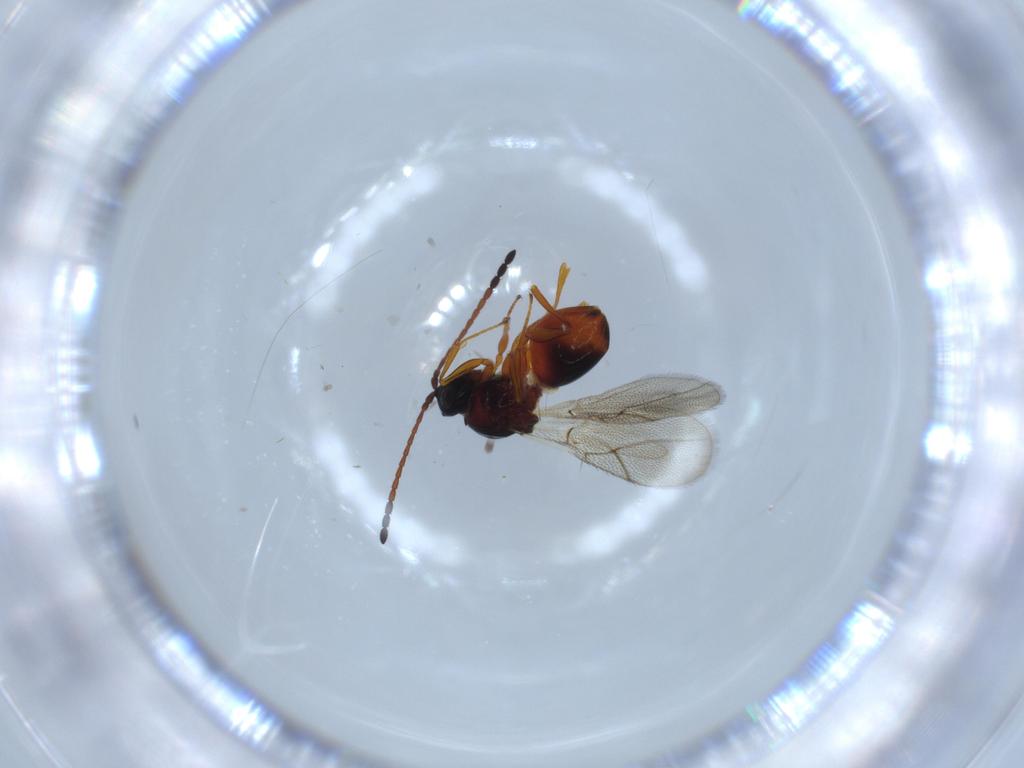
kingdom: Animalia
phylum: Arthropoda
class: Insecta
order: Hymenoptera
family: Figitidae
